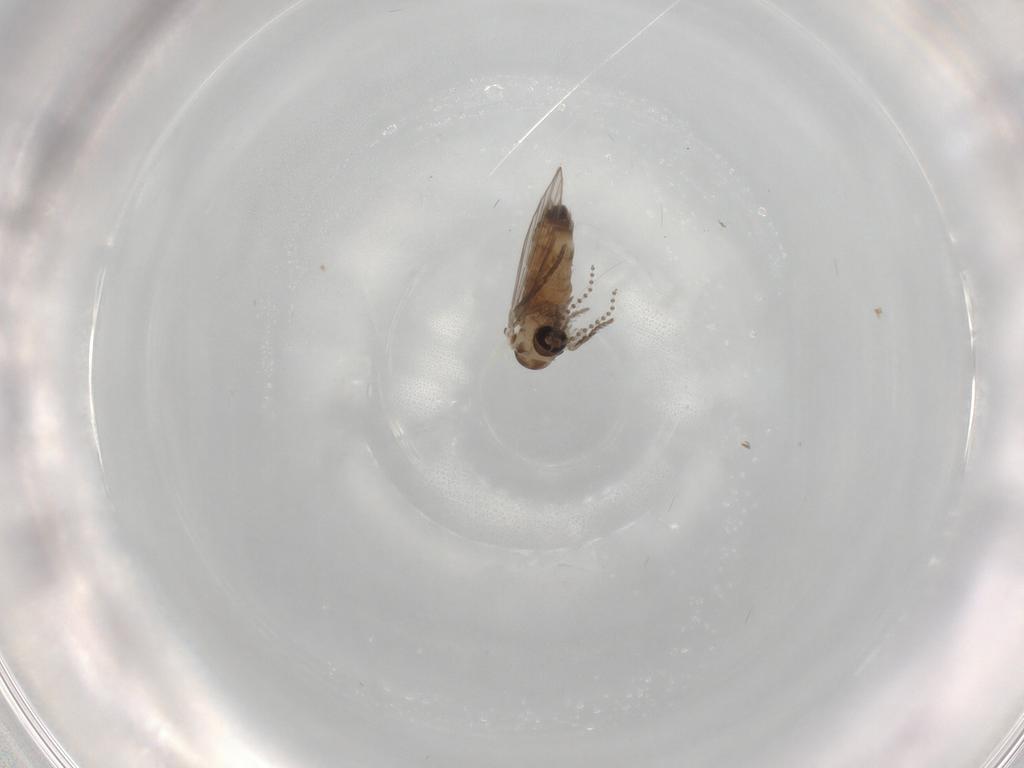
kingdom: Animalia
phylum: Arthropoda
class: Insecta
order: Diptera
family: Psychodidae
